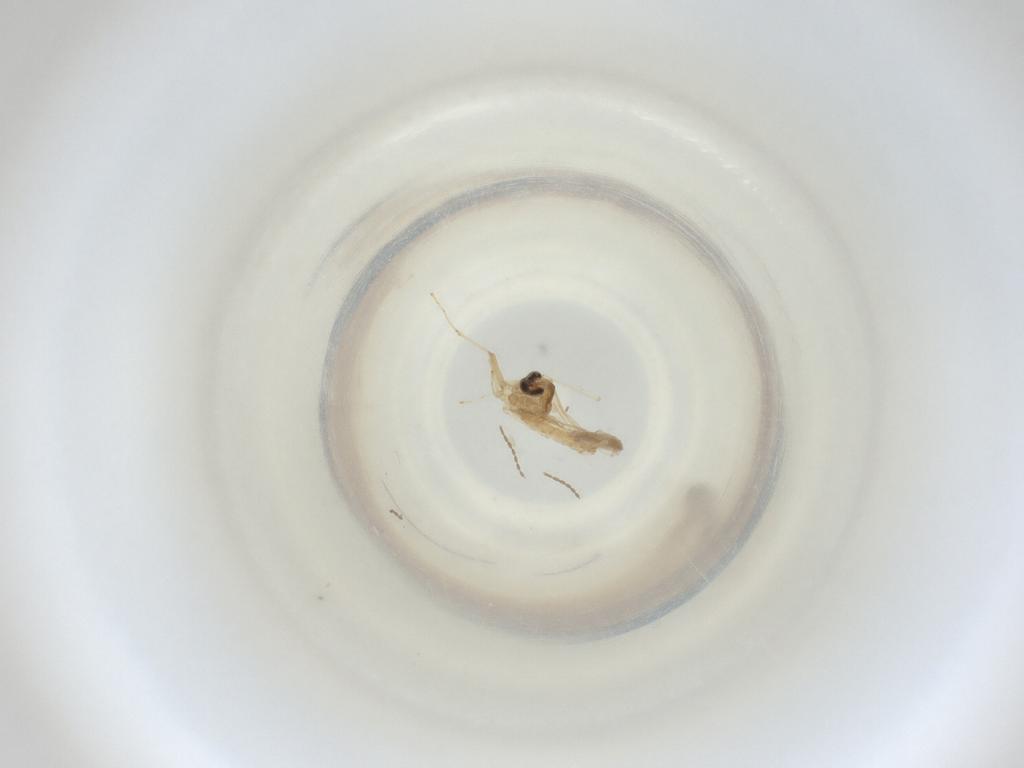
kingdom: Animalia
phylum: Arthropoda
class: Insecta
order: Diptera
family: Cecidomyiidae
